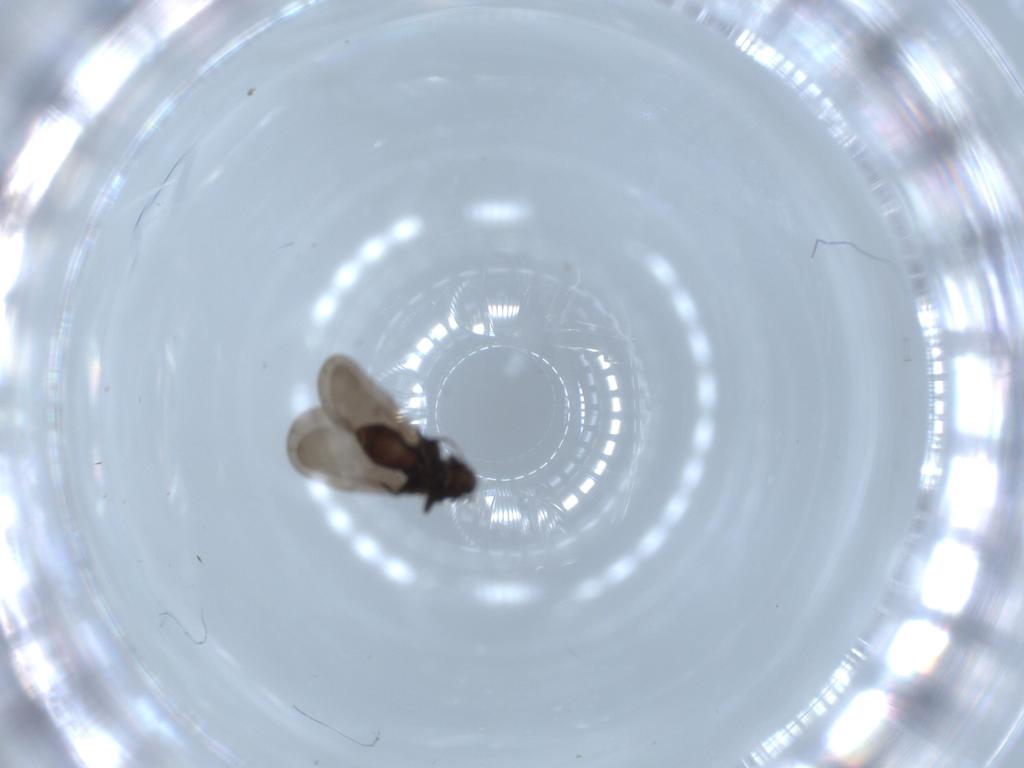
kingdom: Animalia
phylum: Arthropoda
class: Insecta
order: Psocodea
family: Lepidopsocidae
